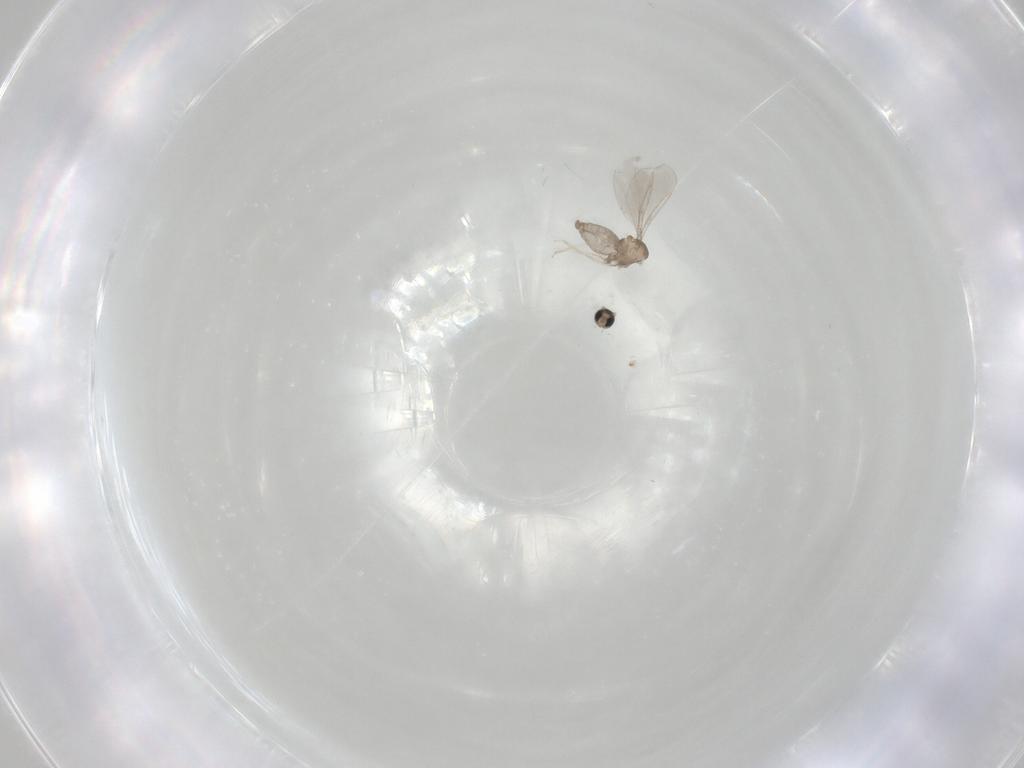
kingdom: Animalia
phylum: Arthropoda
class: Insecta
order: Diptera
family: Cecidomyiidae
